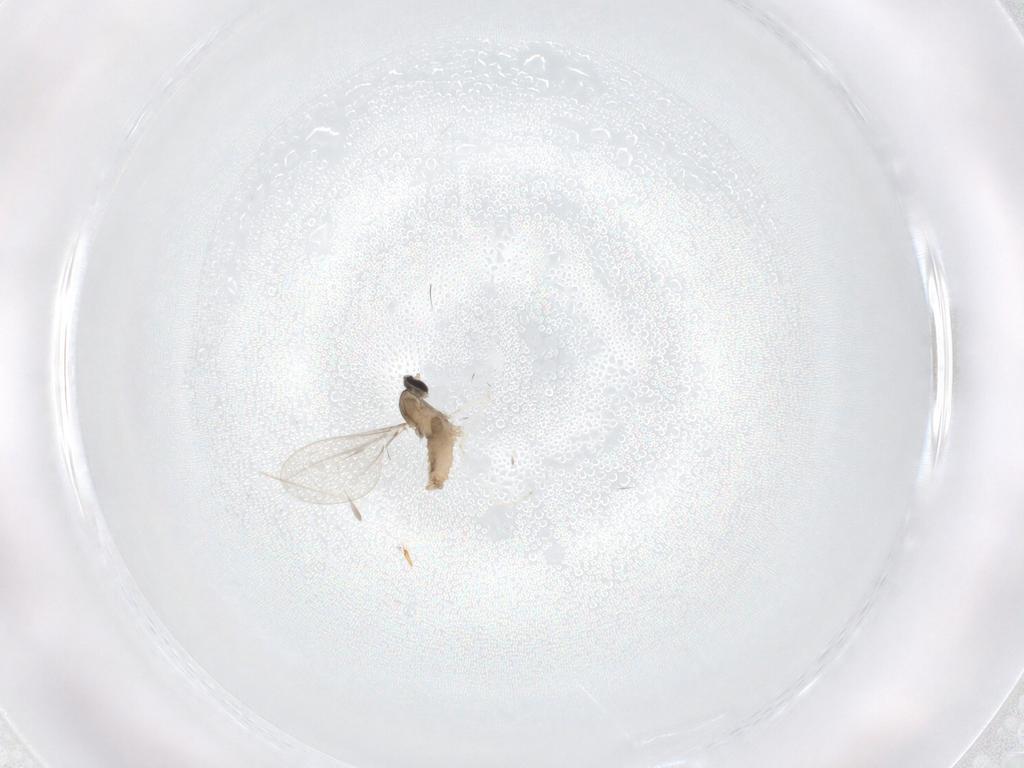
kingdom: Animalia
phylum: Arthropoda
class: Insecta
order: Diptera
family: Cecidomyiidae
